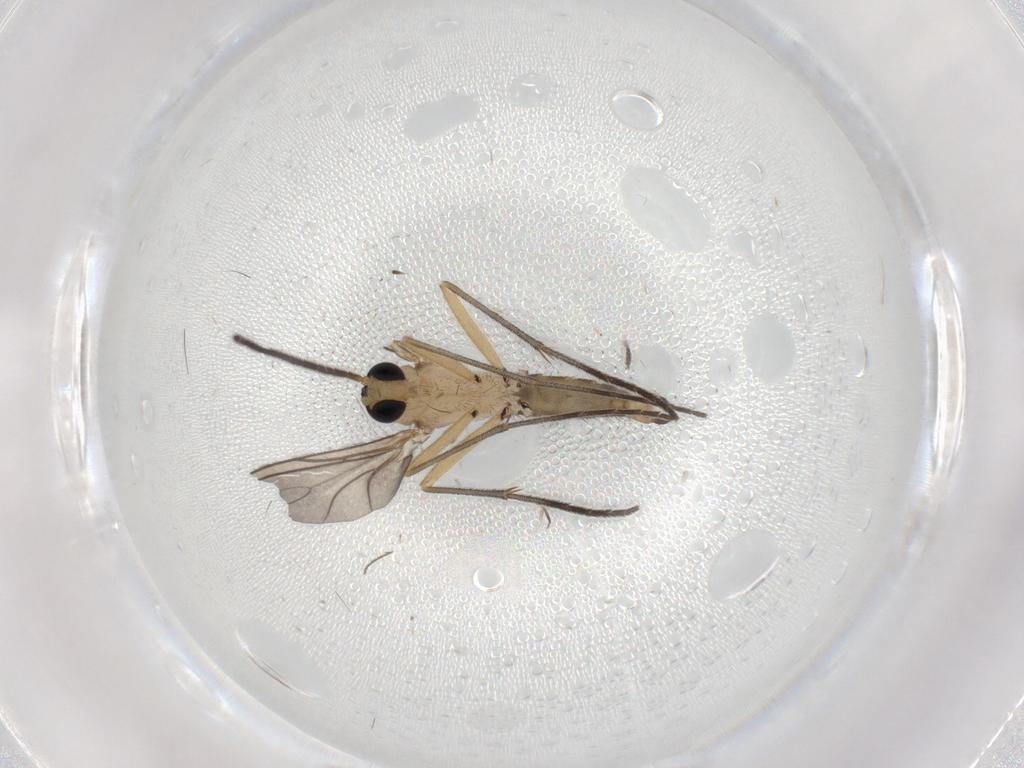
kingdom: Animalia
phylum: Arthropoda
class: Insecta
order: Diptera
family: Sciaridae
